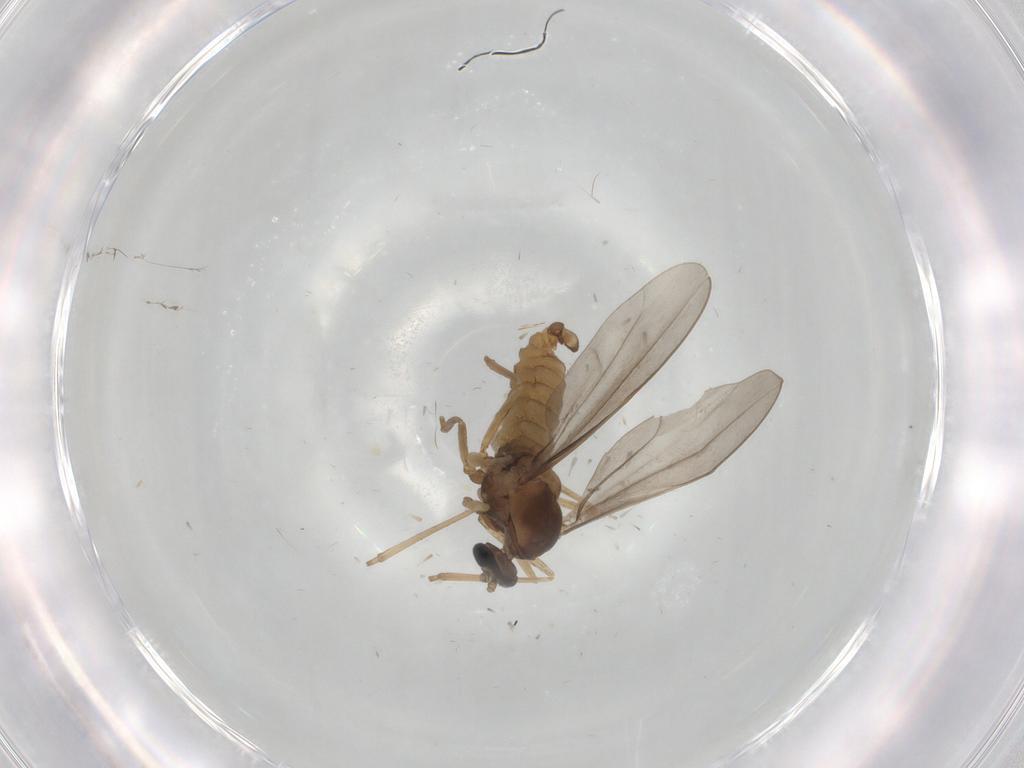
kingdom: Animalia
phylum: Arthropoda
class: Insecta
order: Diptera
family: Cecidomyiidae
